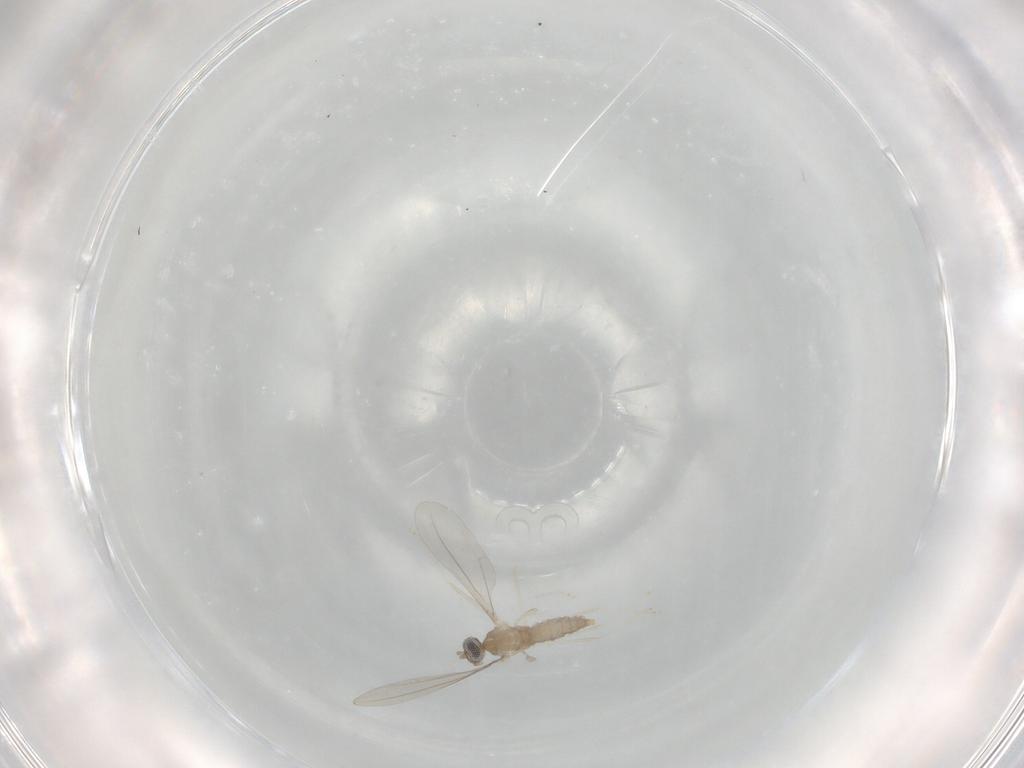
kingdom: Animalia
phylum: Arthropoda
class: Insecta
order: Diptera
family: Cecidomyiidae
